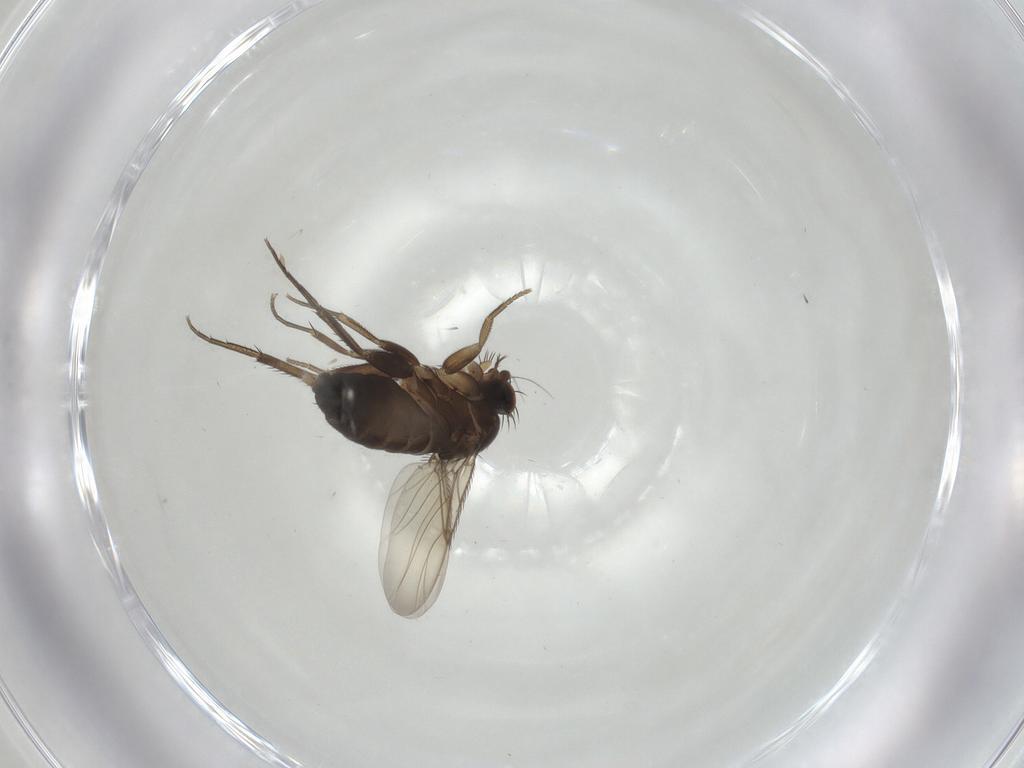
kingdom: Animalia
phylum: Arthropoda
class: Insecta
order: Diptera
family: Phoridae
